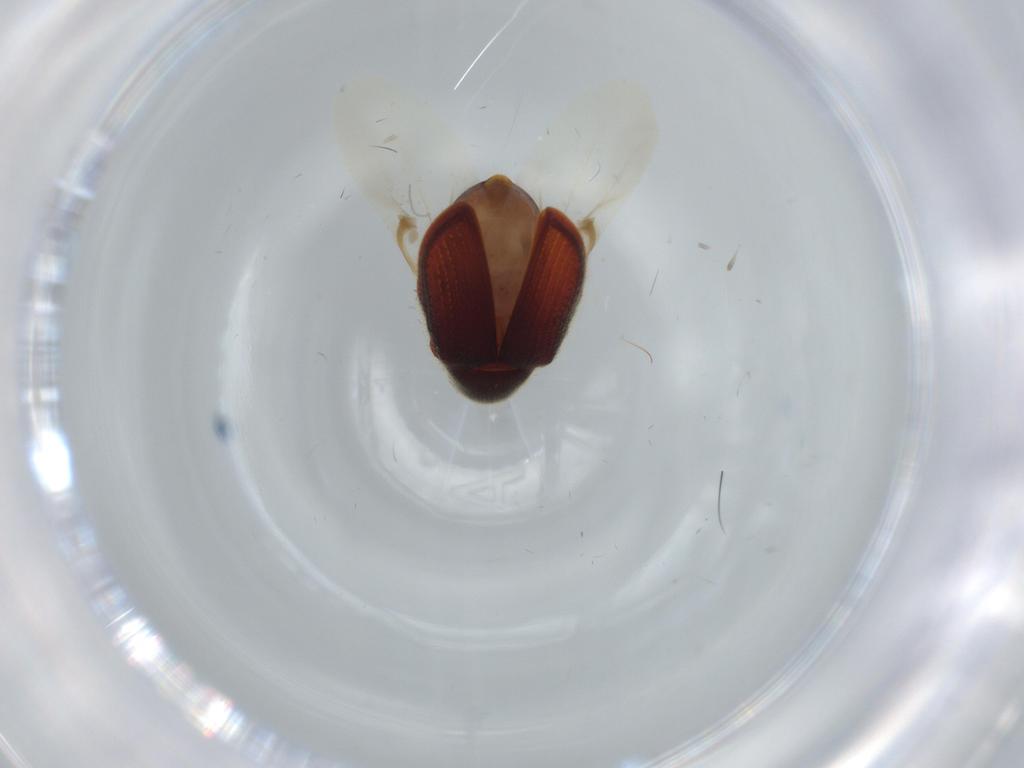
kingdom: Animalia
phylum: Arthropoda
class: Insecta
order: Coleoptera
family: Ptinidae
